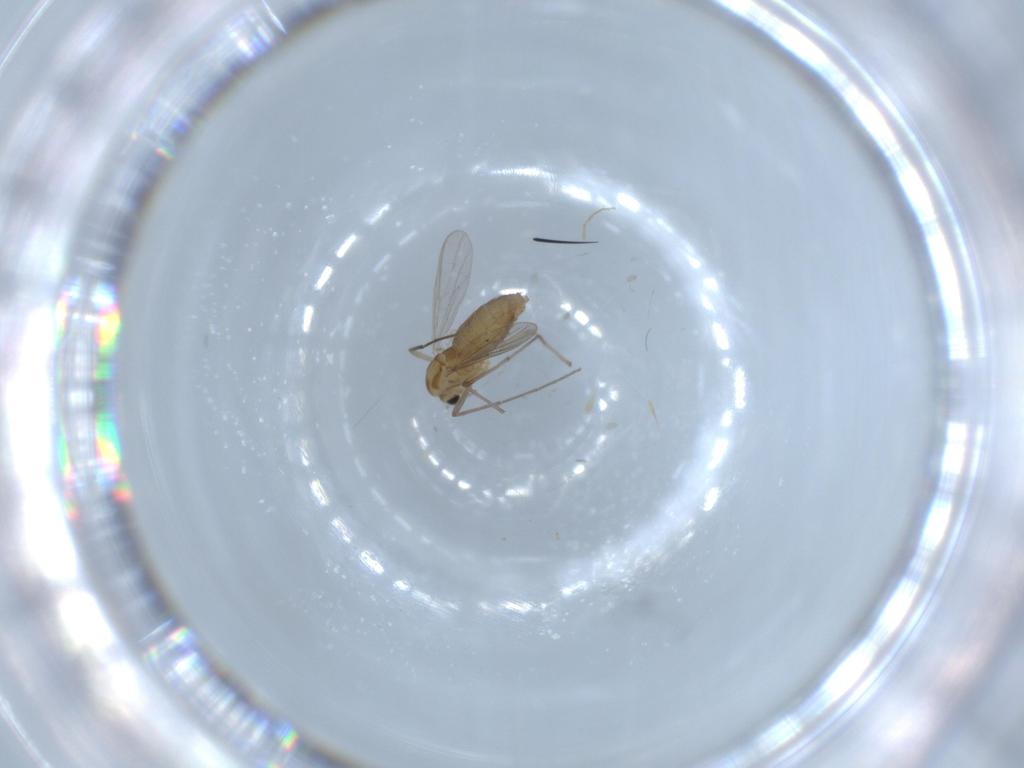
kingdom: Animalia
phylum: Arthropoda
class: Insecta
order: Diptera
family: Chironomidae
